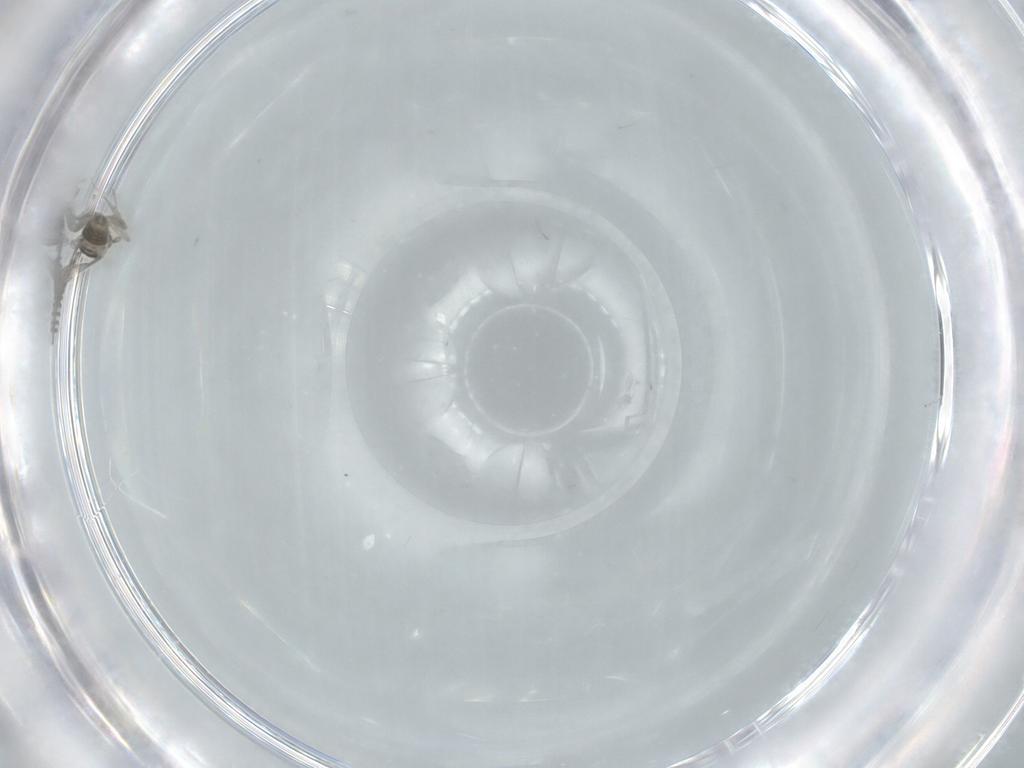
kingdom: Animalia
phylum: Arthropoda
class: Insecta
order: Diptera
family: Cecidomyiidae
